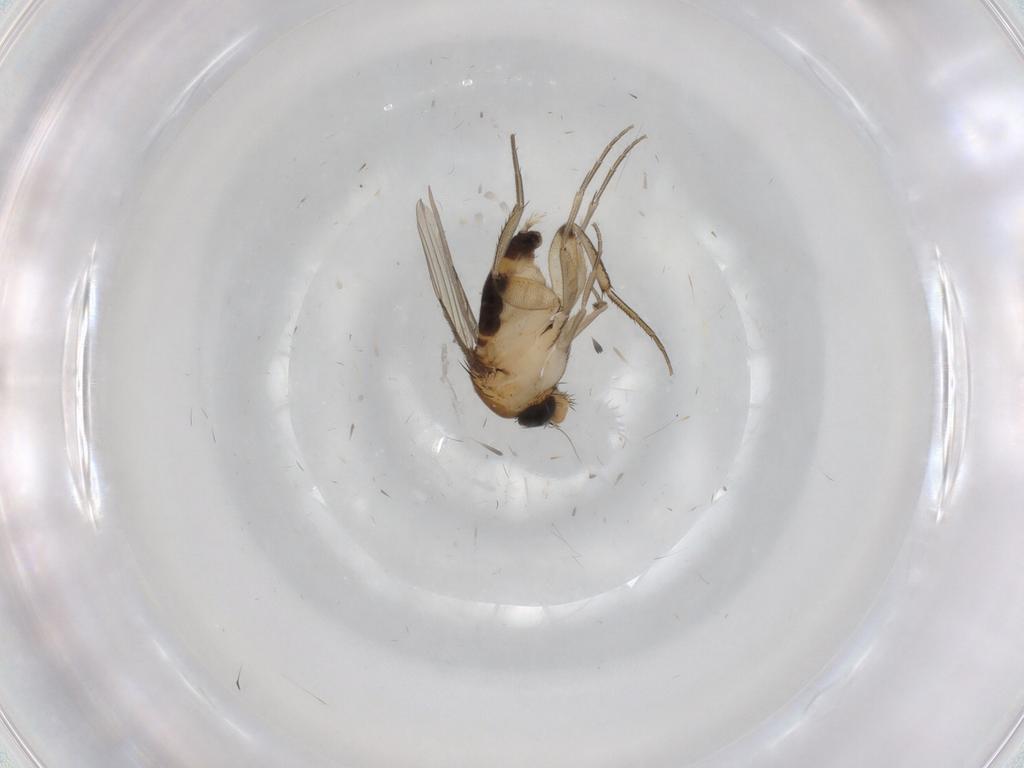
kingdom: Animalia
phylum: Arthropoda
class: Insecta
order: Diptera
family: Phoridae
